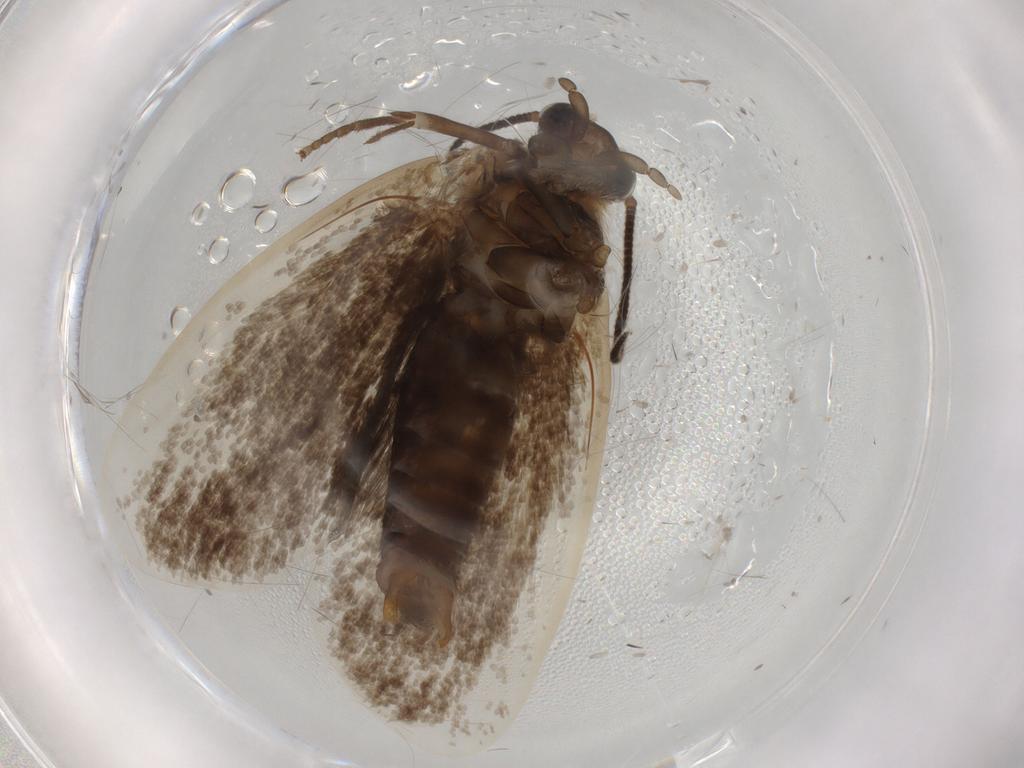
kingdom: Animalia
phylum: Arthropoda
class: Insecta
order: Lepidoptera
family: Tineidae
